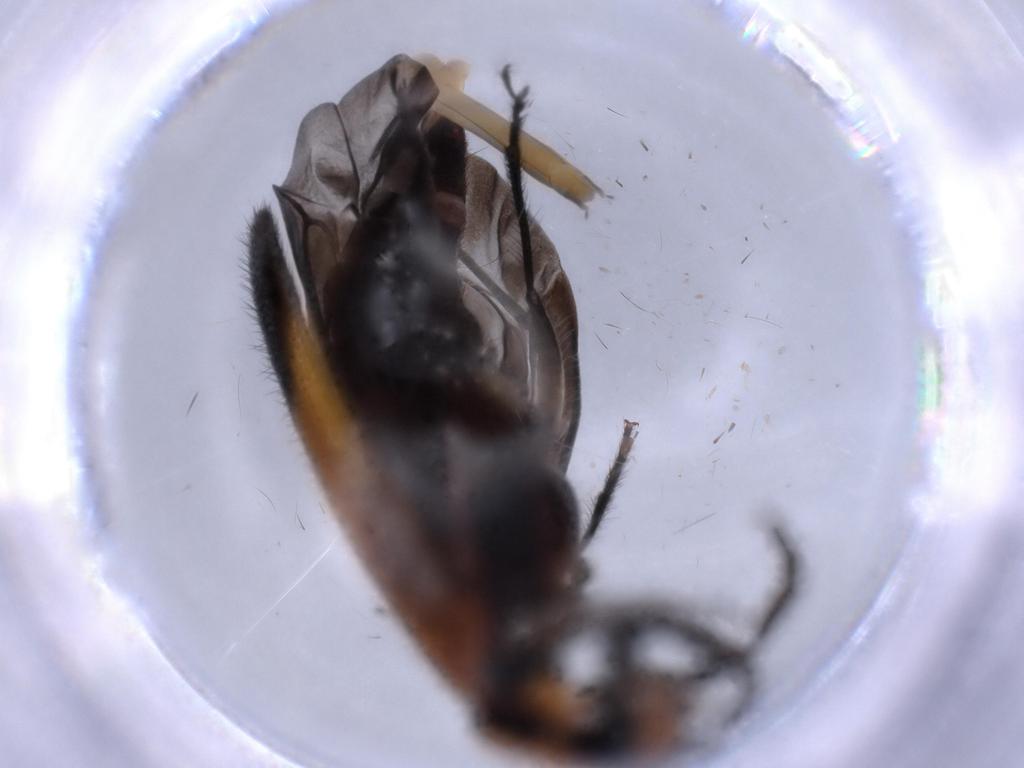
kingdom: Animalia
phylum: Arthropoda
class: Insecta
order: Coleoptera
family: Cleridae
